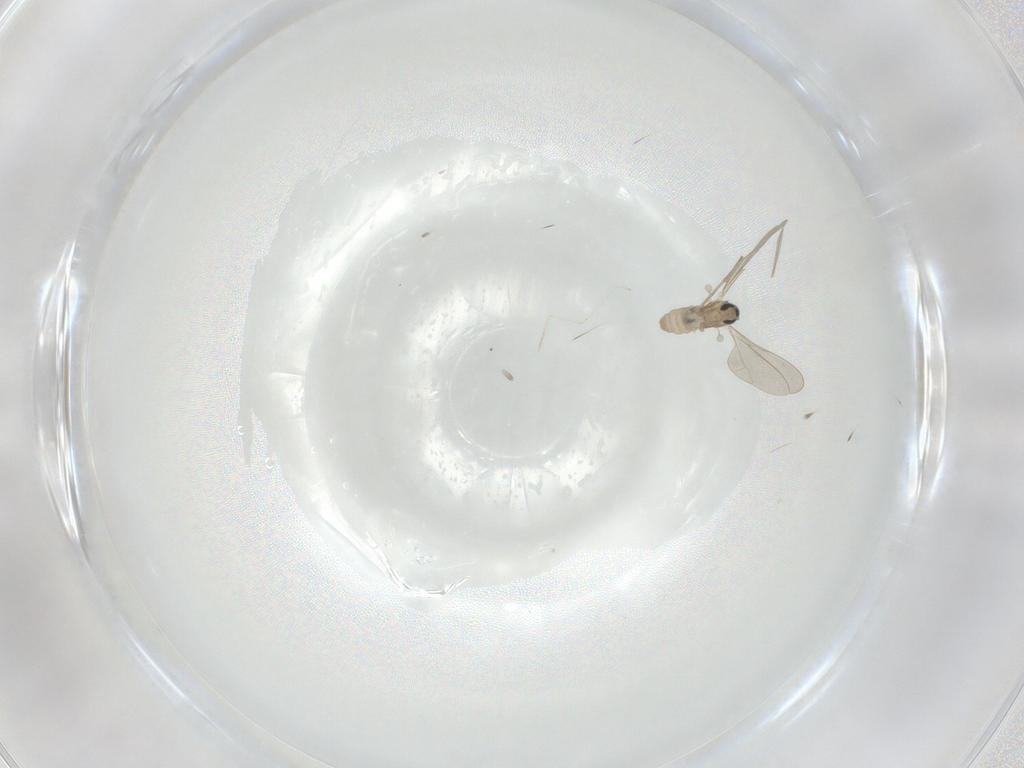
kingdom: Animalia
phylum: Arthropoda
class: Insecta
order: Diptera
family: Cecidomyiidae
